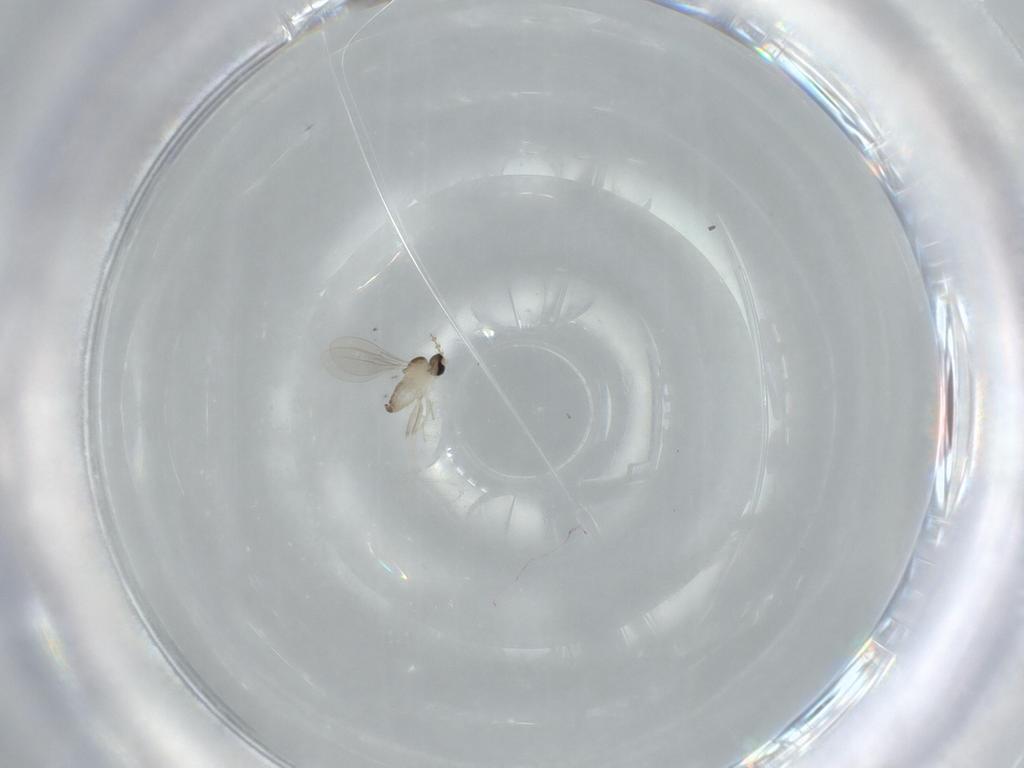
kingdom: Animalia
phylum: Arthropoda
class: Insecta
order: Diptera
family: Cecidomyiidae
